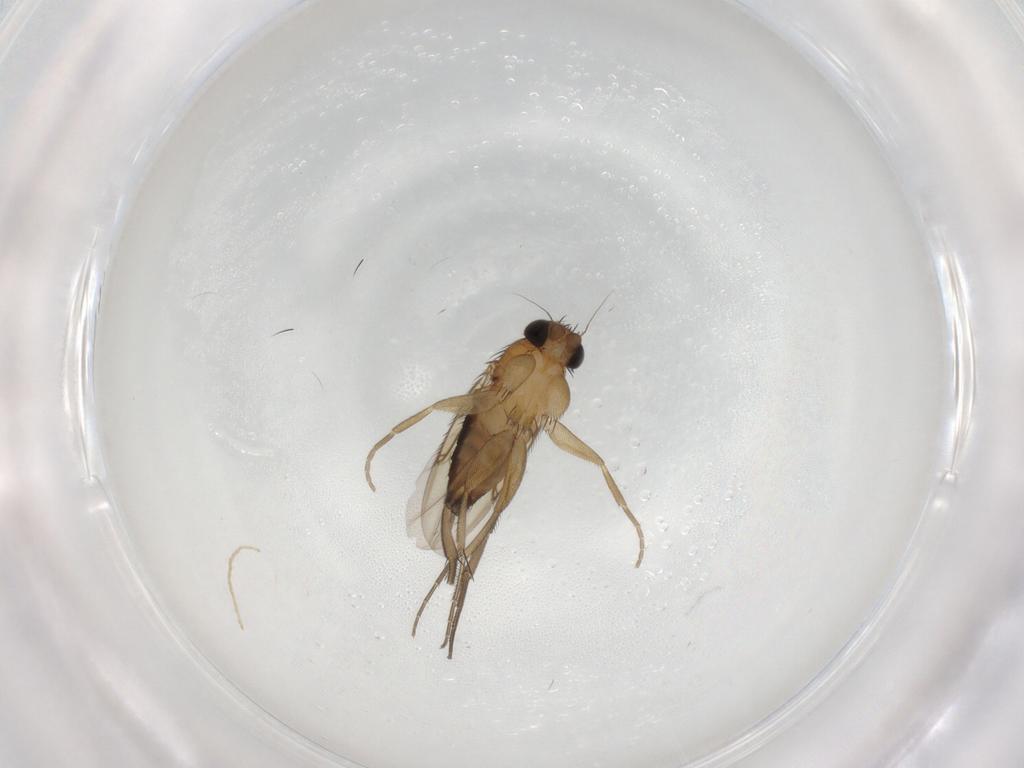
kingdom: Animalia
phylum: Arthropoda
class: Insecta
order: Diptera
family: Phoridae
